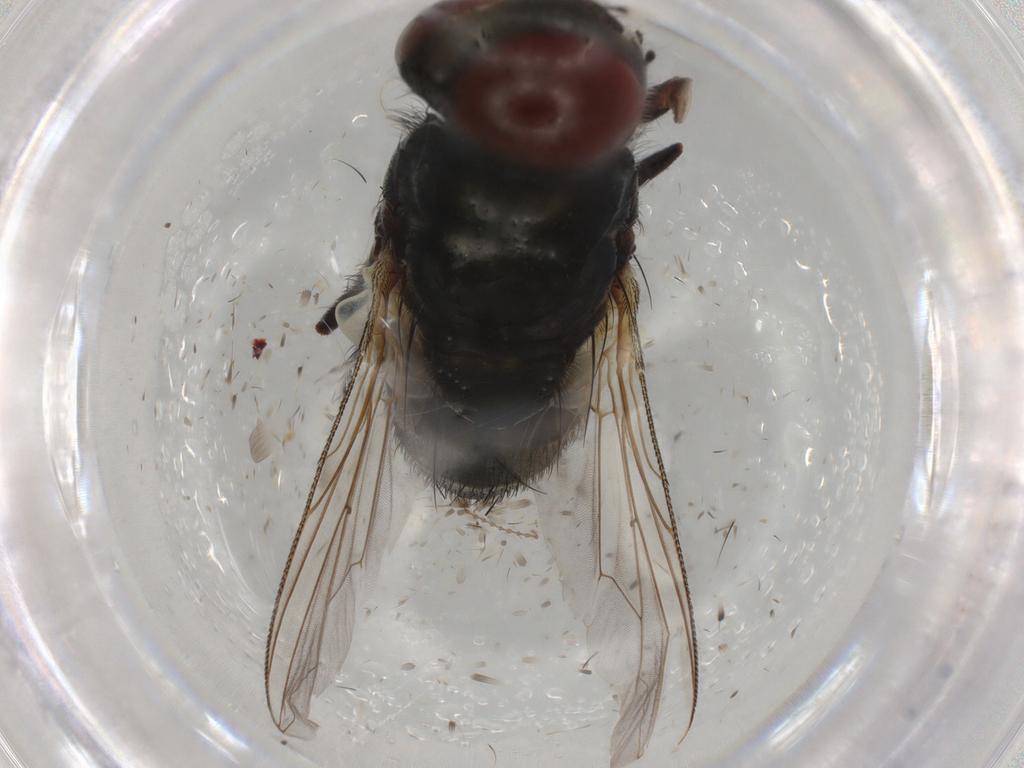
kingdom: Animalia
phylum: Arthropoda
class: Insecta
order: Diptera
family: Sarcophagidae
